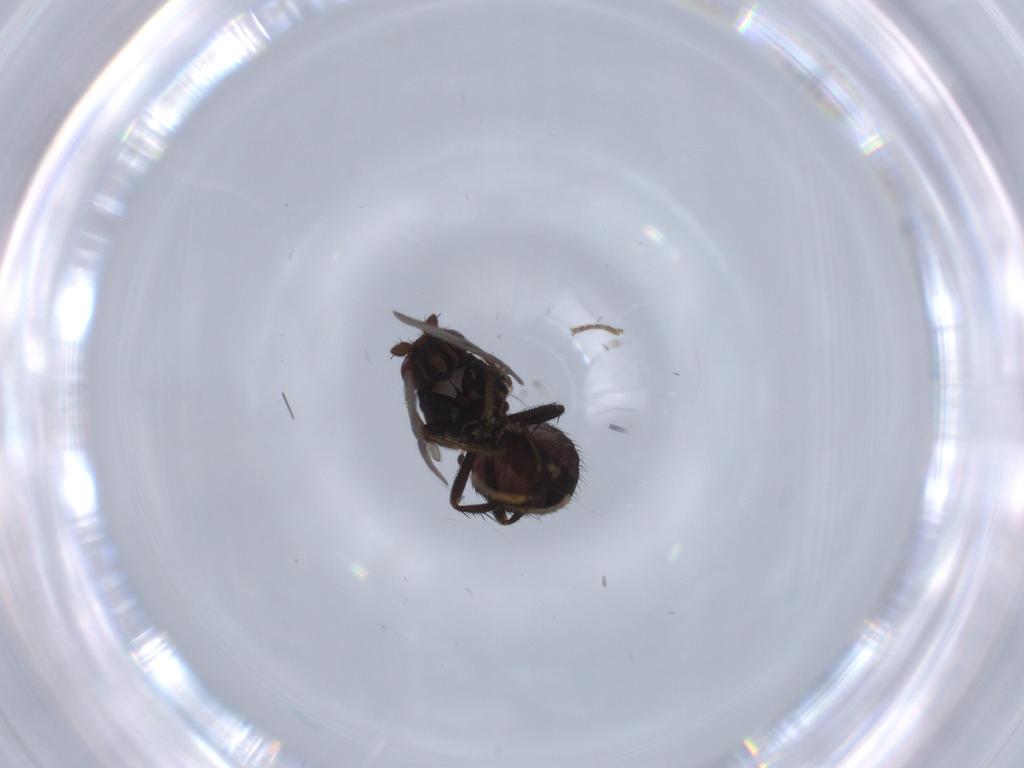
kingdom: Animalia
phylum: Arthropoda
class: Insecta
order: Diptera
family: Sphaeroceridae
